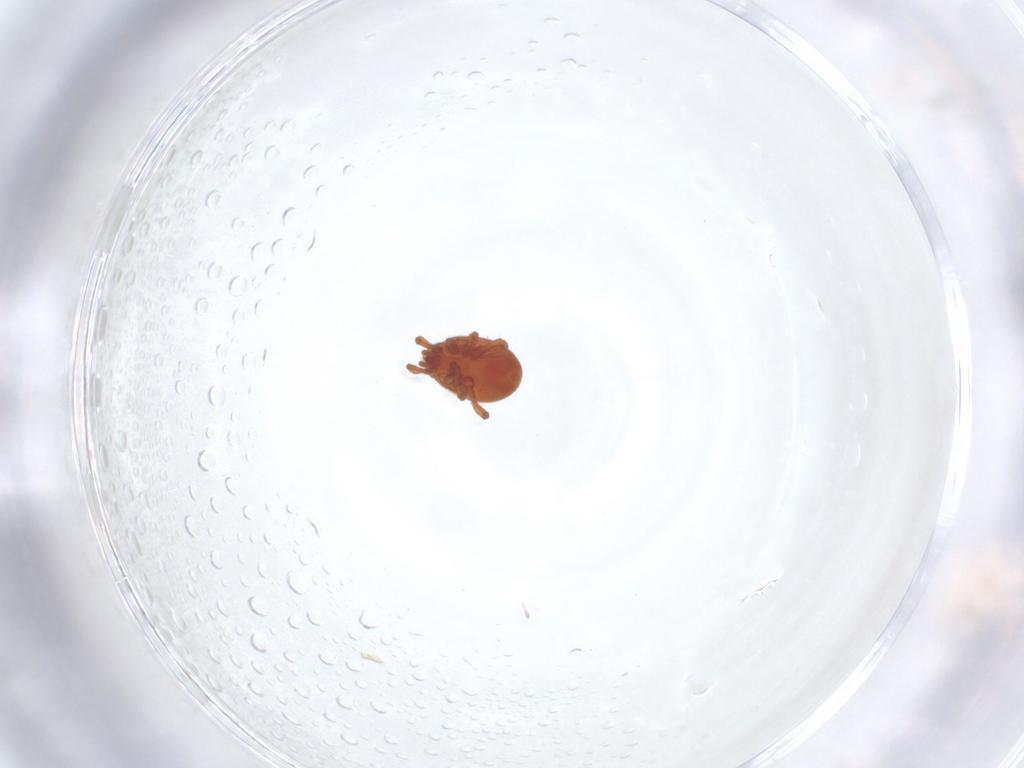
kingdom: Animalia
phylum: Arthropoda
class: Arachnida
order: Mesostigmata
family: Parasitidae
